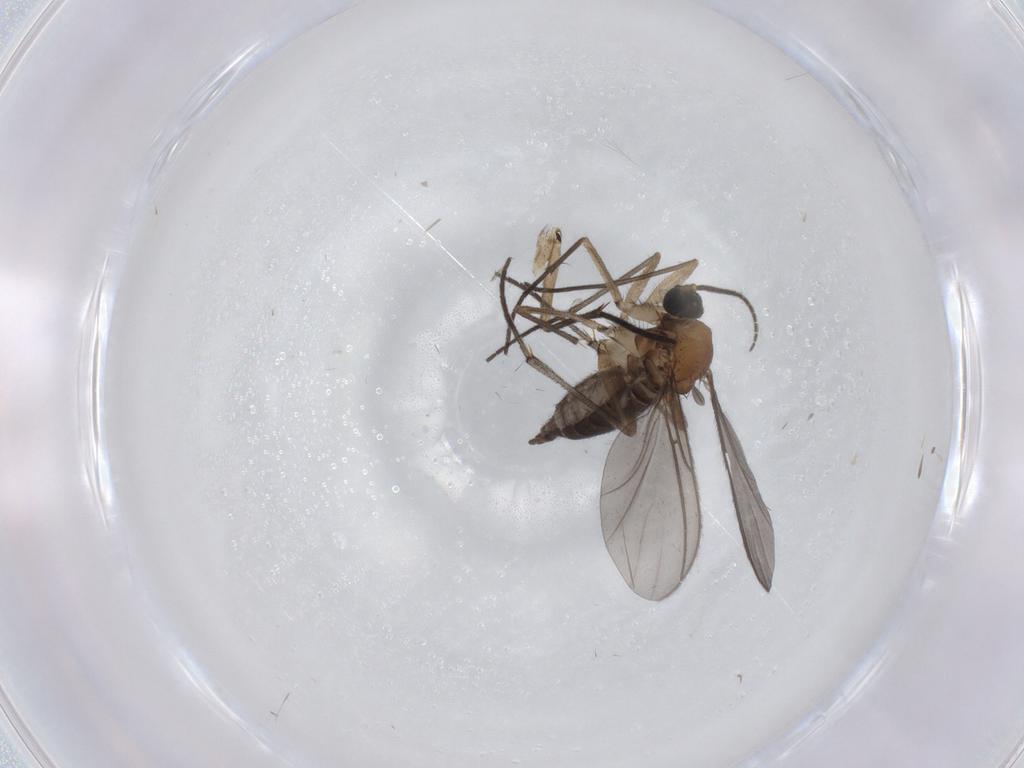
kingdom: Animalia
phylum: Arthropoda
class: Insecta
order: Diptera
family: Sciaridae
